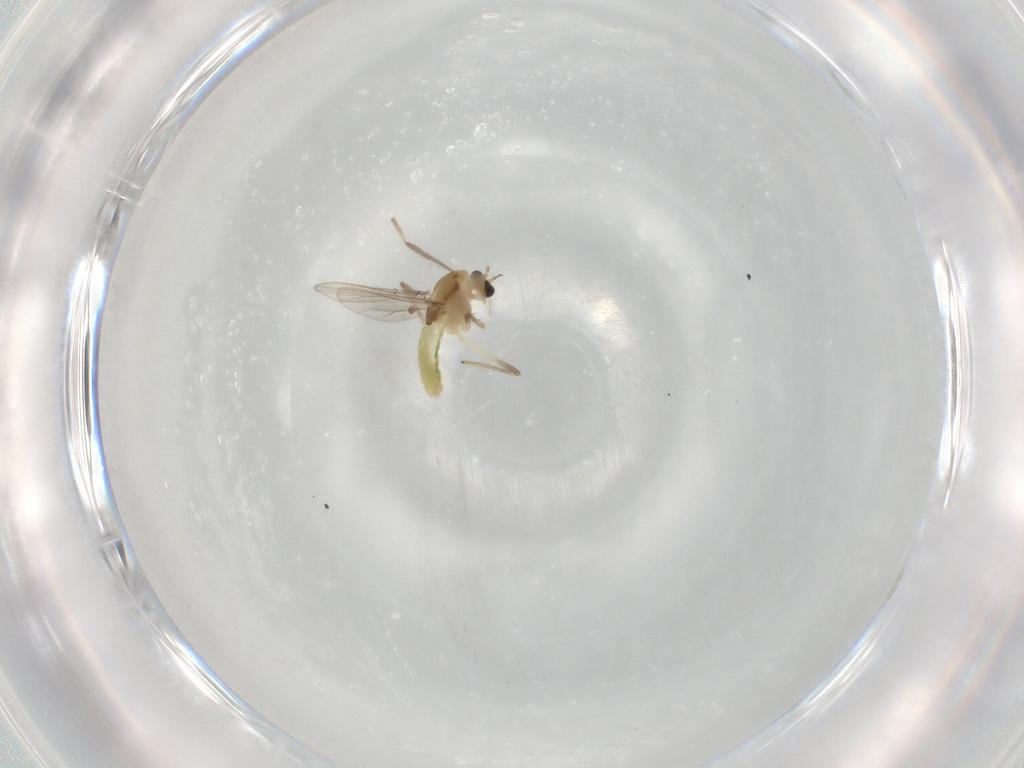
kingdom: Animalia
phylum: Arthropoda
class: Insecta
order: Diptera
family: Chironomidae
